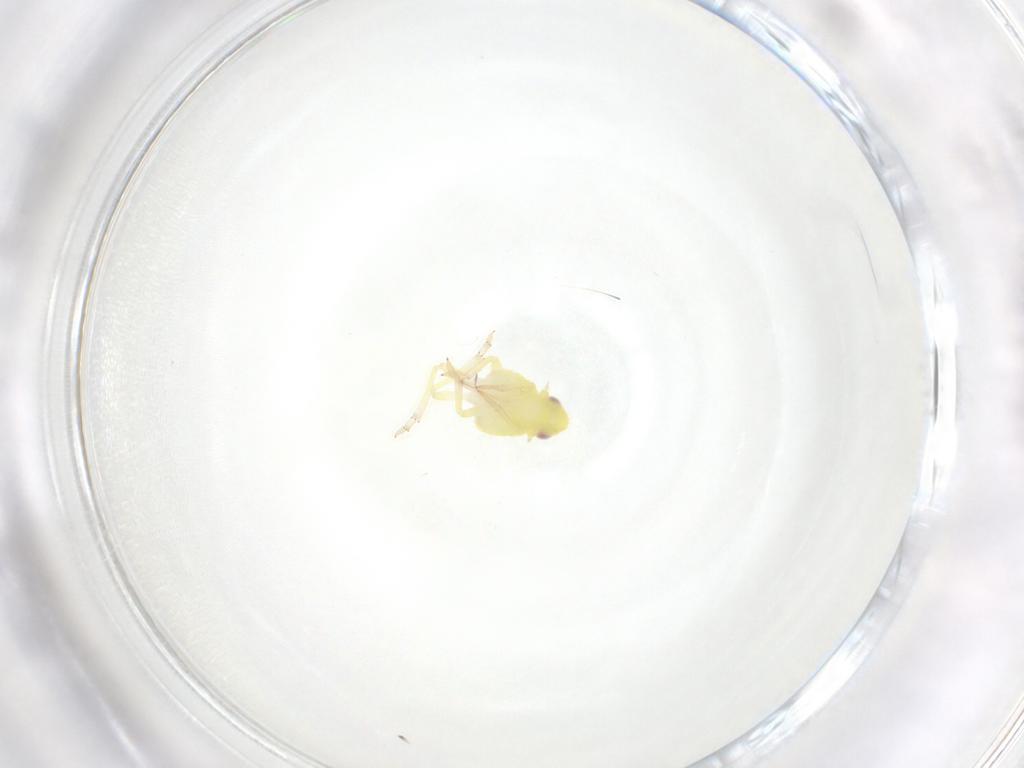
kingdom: Animalia
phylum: Arthropoda
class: Insecta
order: Hemiptera
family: Tropiduchidae
